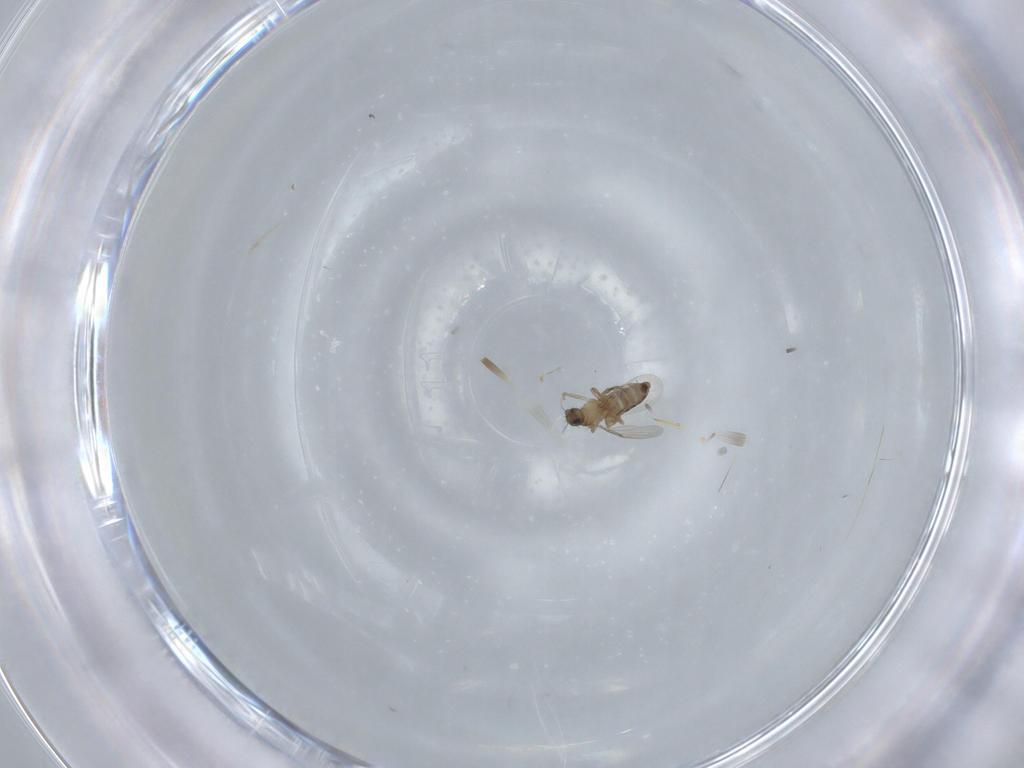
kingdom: Animalia
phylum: Arthropoda
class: Insecta
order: Diptera
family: Phoridae
